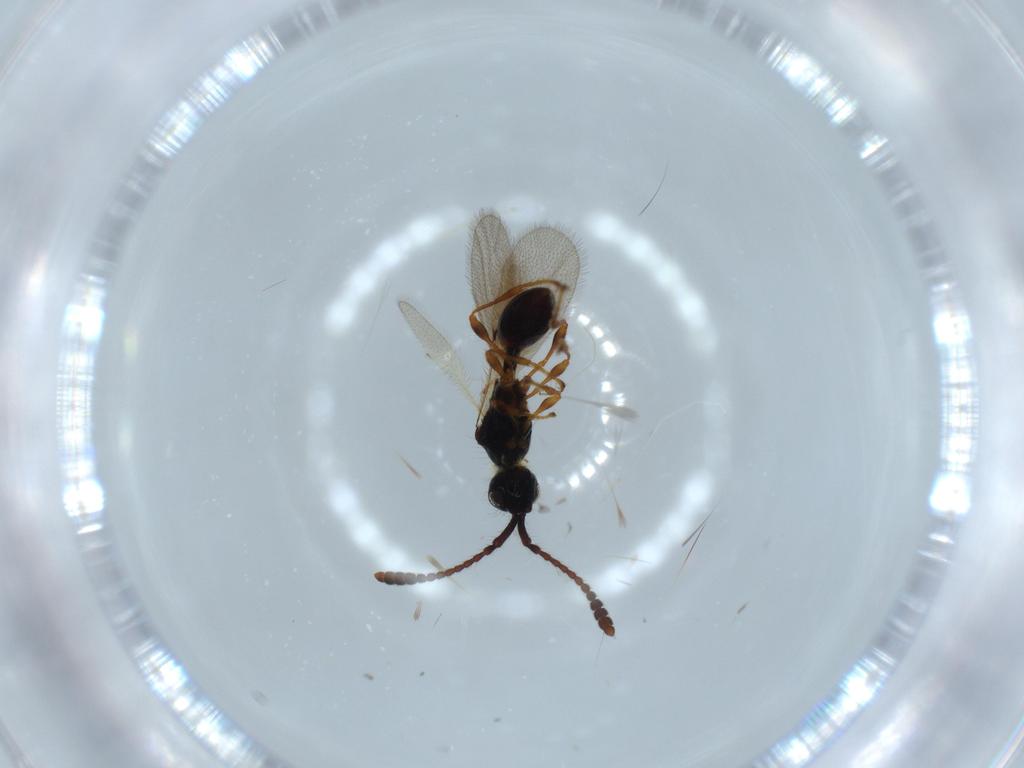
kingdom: Animalia
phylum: Arthropoda
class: Insecta
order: Hymenoptera
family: Diapriidae
